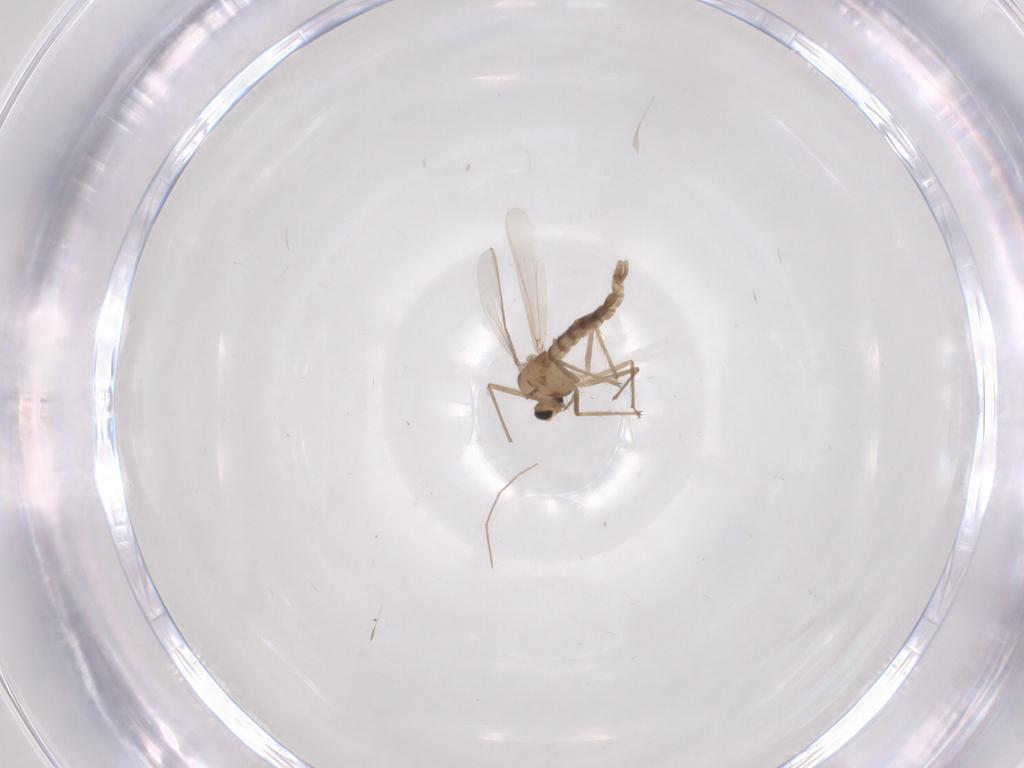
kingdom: Animalia
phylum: Arthropoda
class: Insecta
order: Diptera
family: Chironomidae
